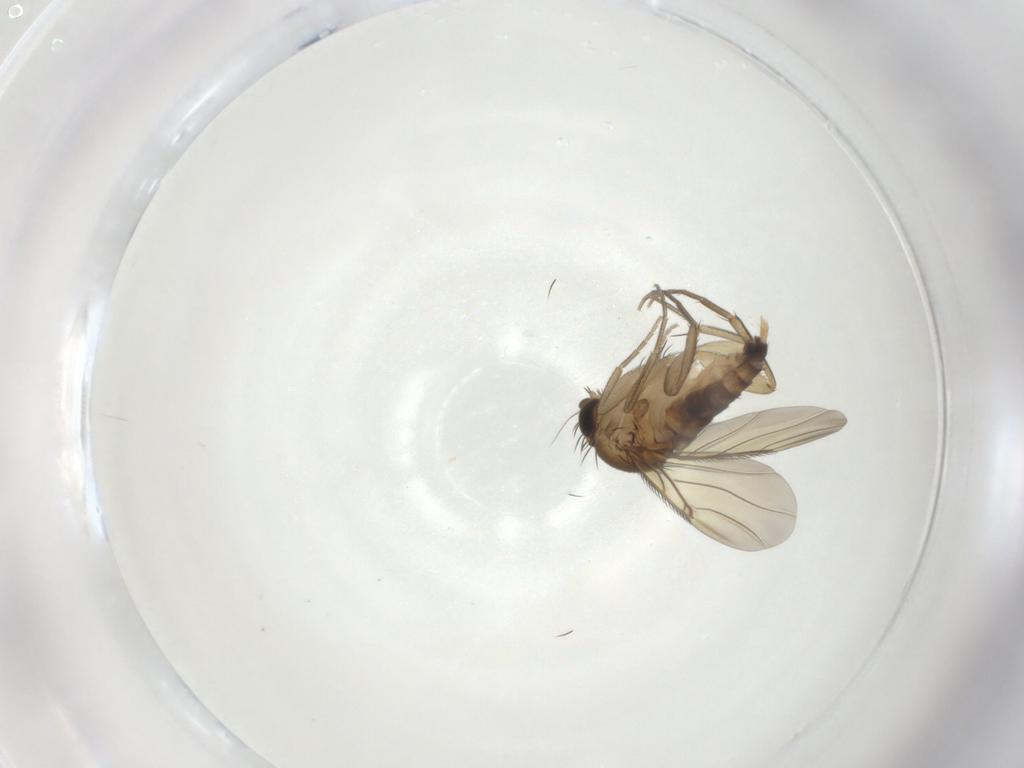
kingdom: Animalia
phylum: Arthropoda
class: Insecta
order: Diptera
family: Phoridae
